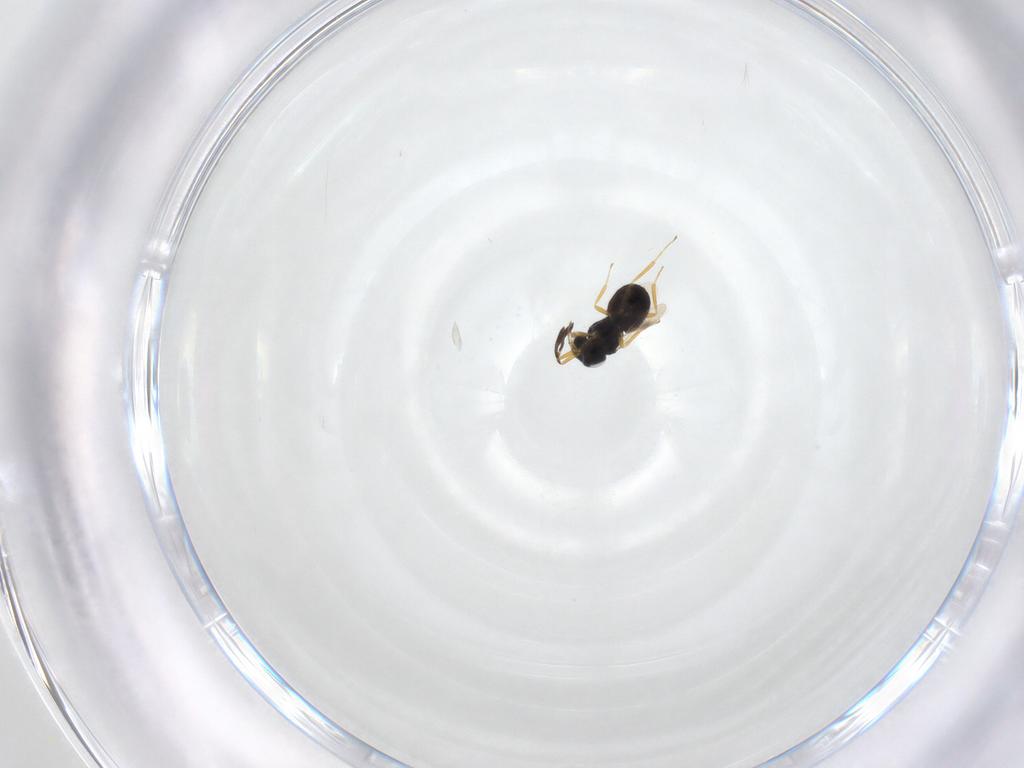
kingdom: Animalia
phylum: Arthropoda
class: Insecta
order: Hymenoptera
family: Scelionidae
